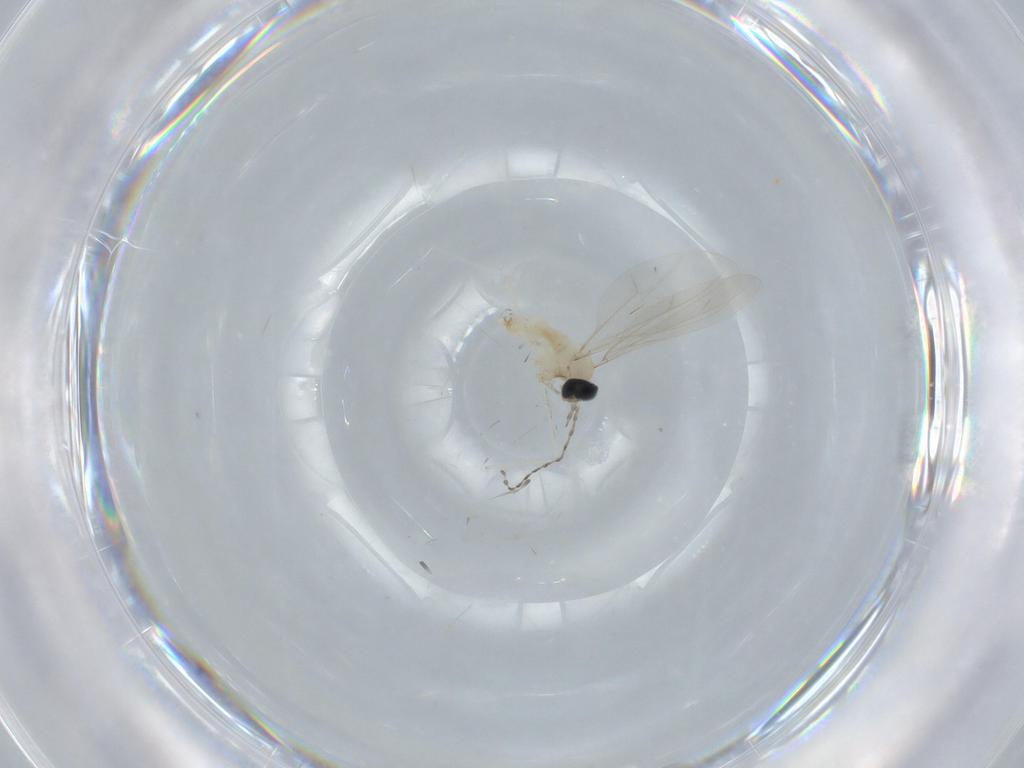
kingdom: Animalia
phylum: Arthropoda
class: Insecta
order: Diptera
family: Cecidomyiidae
